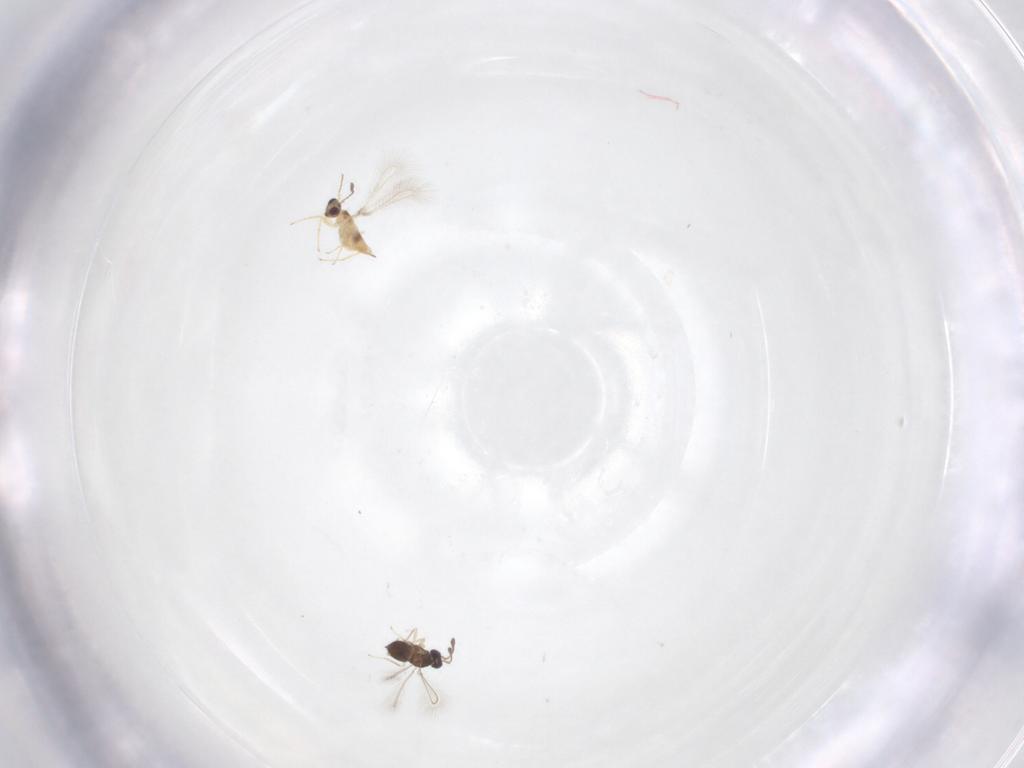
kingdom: Animalia
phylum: Arthropoda
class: Insecta
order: Hymenoptera
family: Mymaridae
